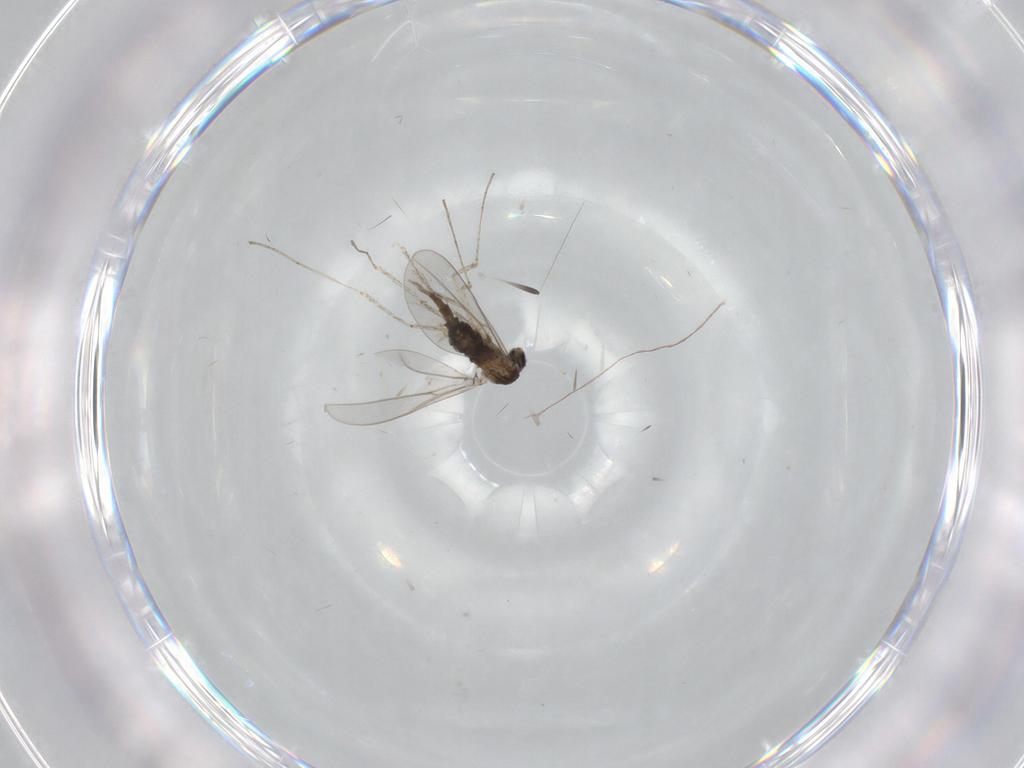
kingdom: Animalia
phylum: Arthropoda
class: Insecta
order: Diptera
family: Cecidomyiidae
